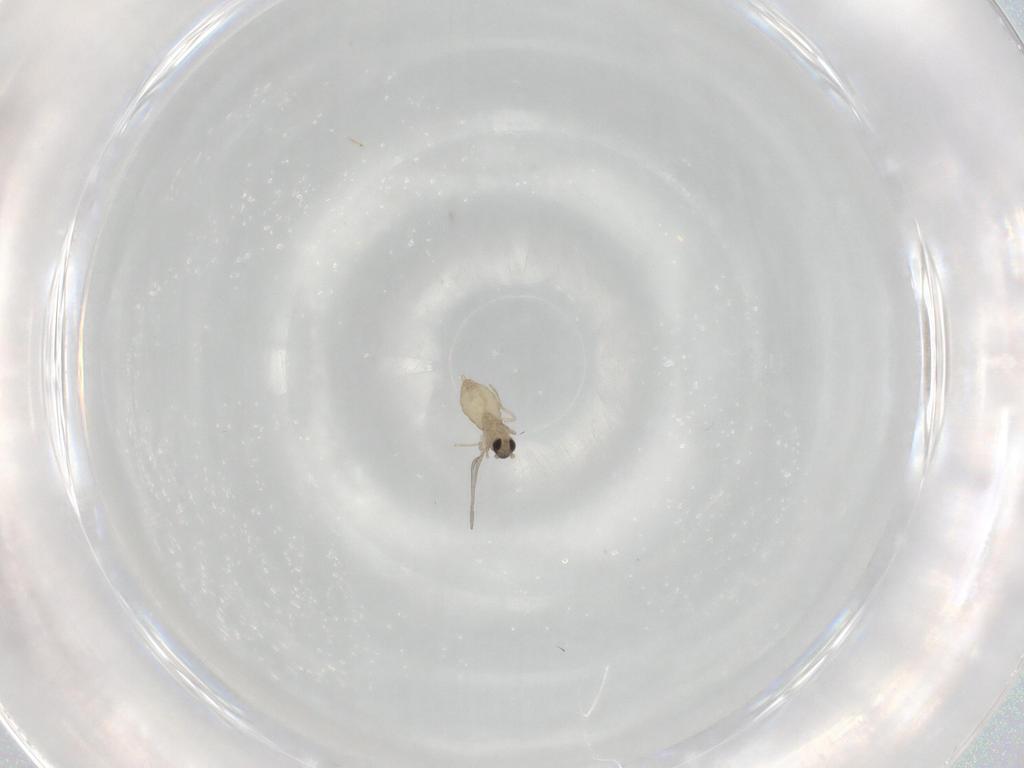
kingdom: Animalia
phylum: Arthropoda
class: Insecta
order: Diptera
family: Cecidomyiidae
